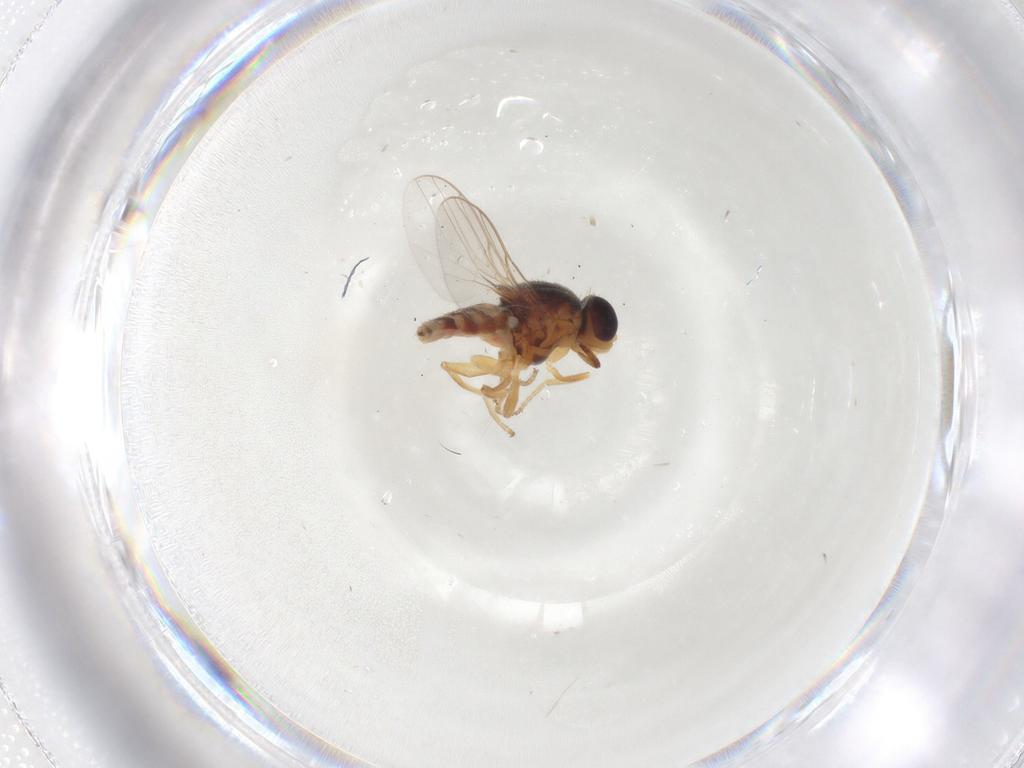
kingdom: Animalia
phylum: Arthropoda
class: Insecta
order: Diptera
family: Chloropidae
